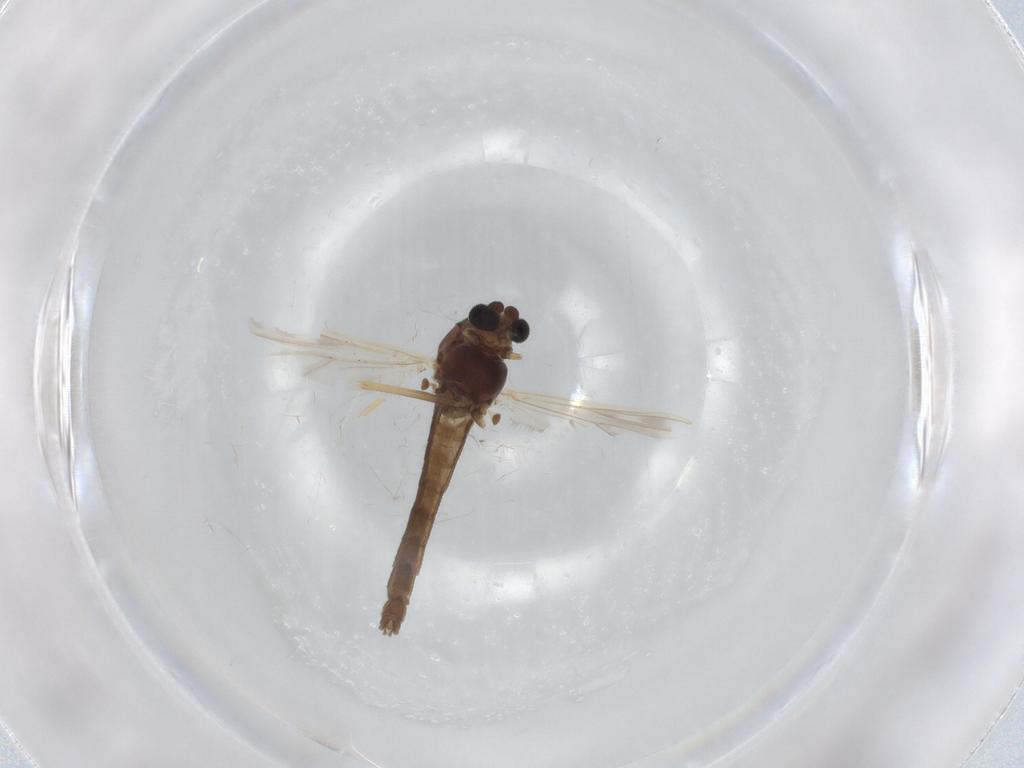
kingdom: Animalia
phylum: Arthropoda
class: Insecta
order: Diptera
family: Chironomidae
